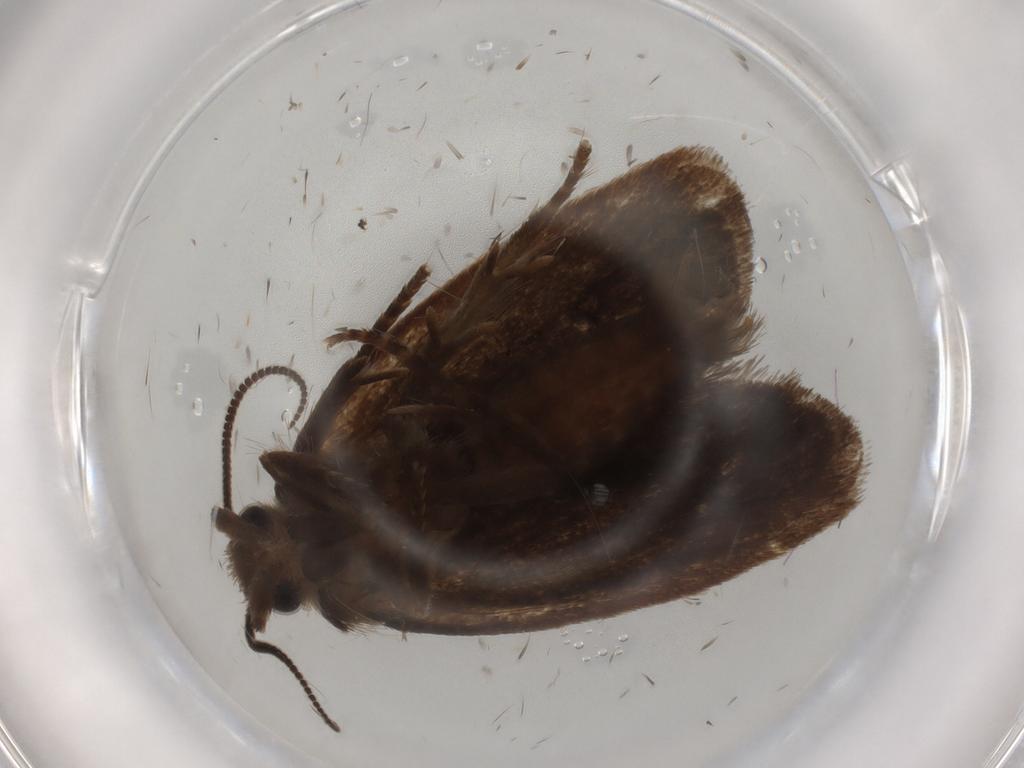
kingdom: Animalia
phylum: Arthropoda
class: Insecta
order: Lepidoptera
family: Tineidae
